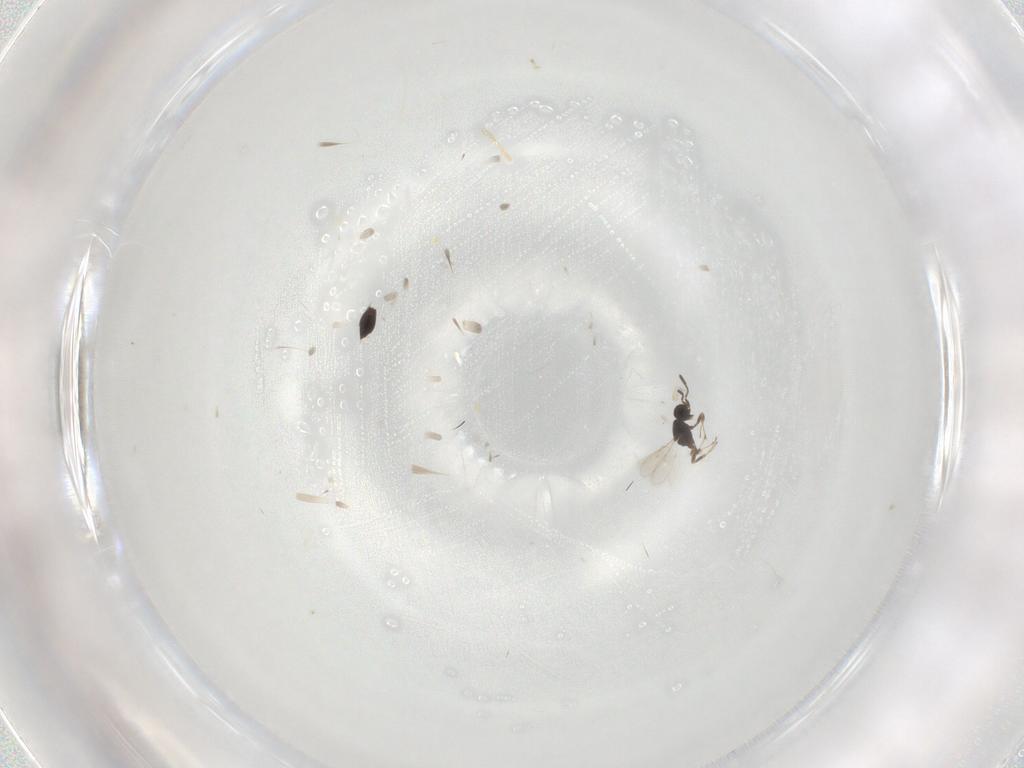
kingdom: Animalia
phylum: Arthropoda
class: Insecta
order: Hymenoptera
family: Scelionidae
